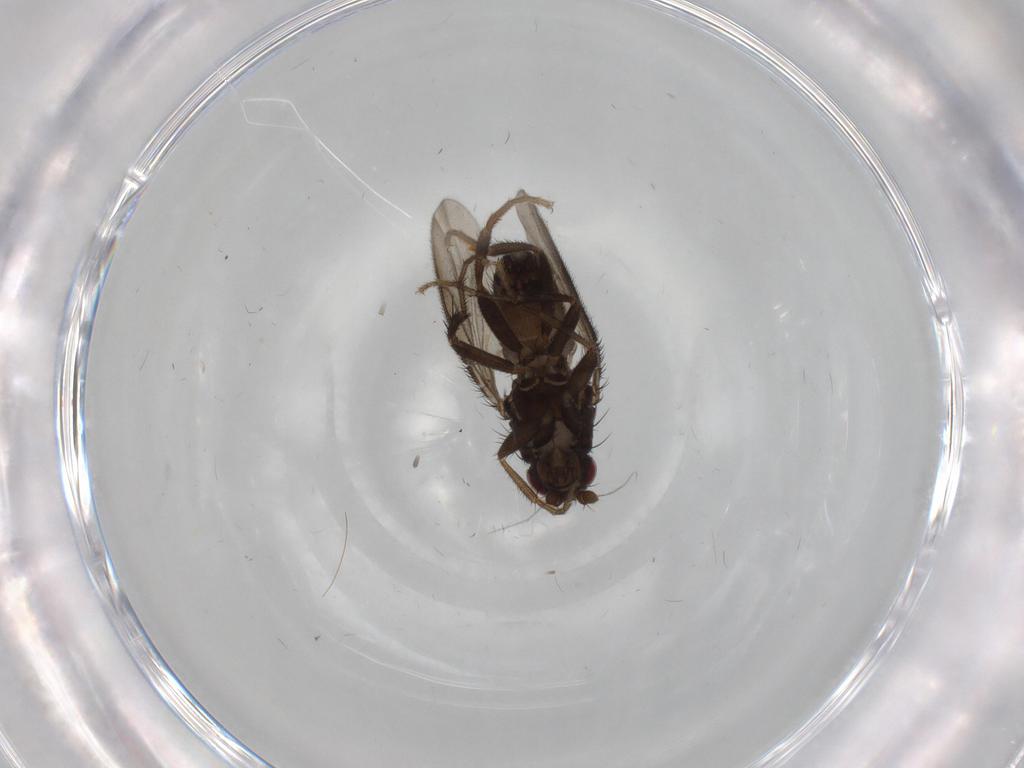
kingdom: Animalia
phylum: Arthropoda
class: Insecta
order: Diptera
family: Sphaeroceridae
